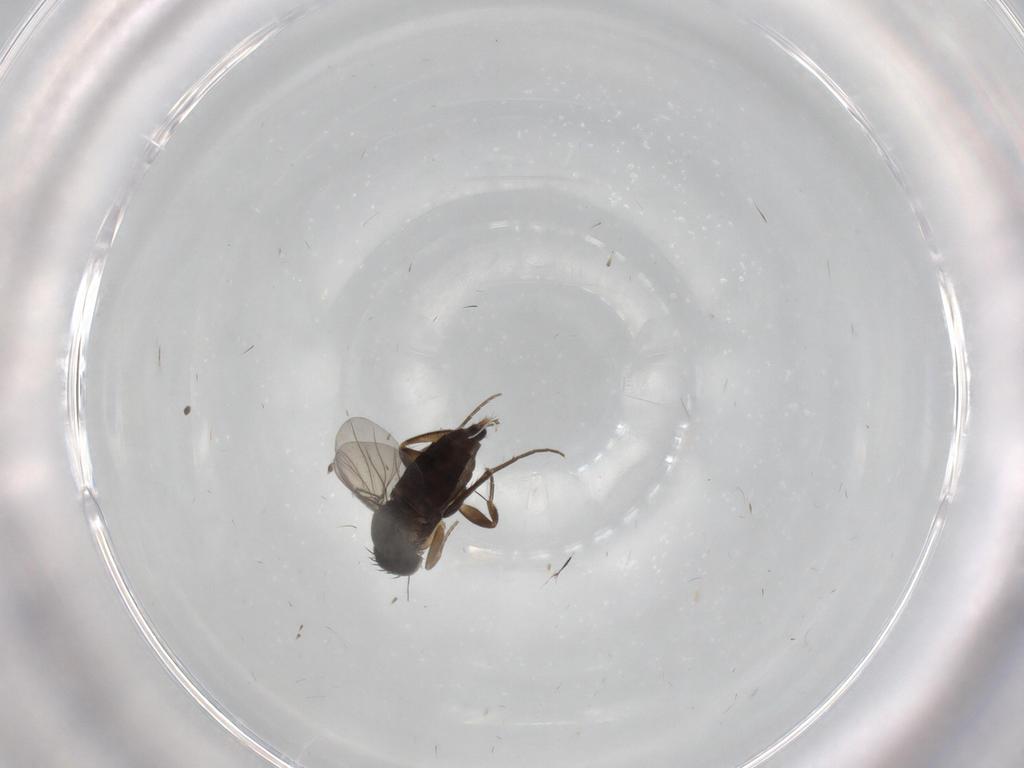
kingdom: Animalia
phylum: Arthropoda
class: Insecta
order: Diptera
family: Phoridae
